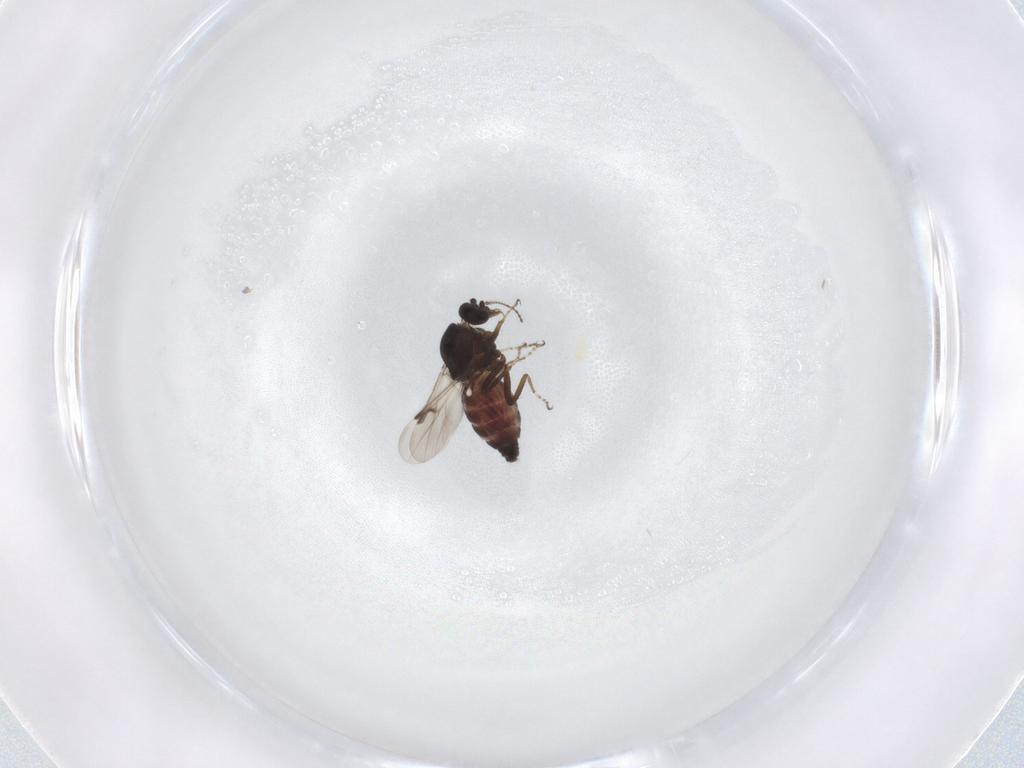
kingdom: Animalia
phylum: Arthropoda
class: Insecta
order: Diptera
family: Ceratopogonidae
